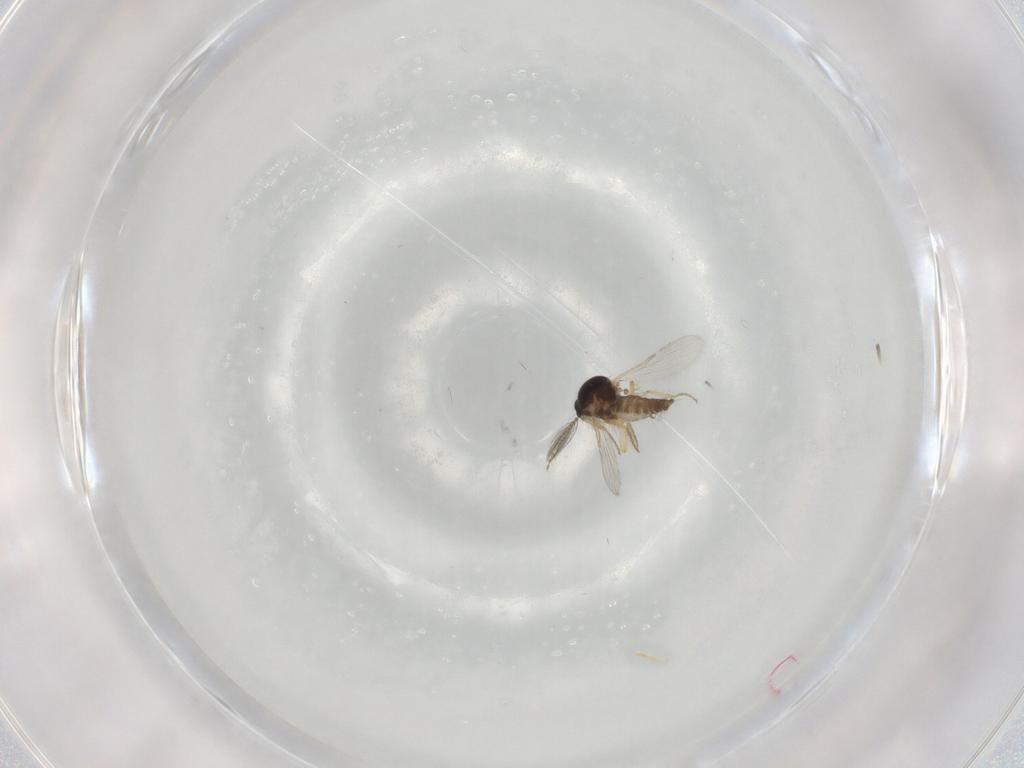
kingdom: Animalia
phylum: Arthropoda
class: Insecta
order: Diptera
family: Ceratopogonidae
